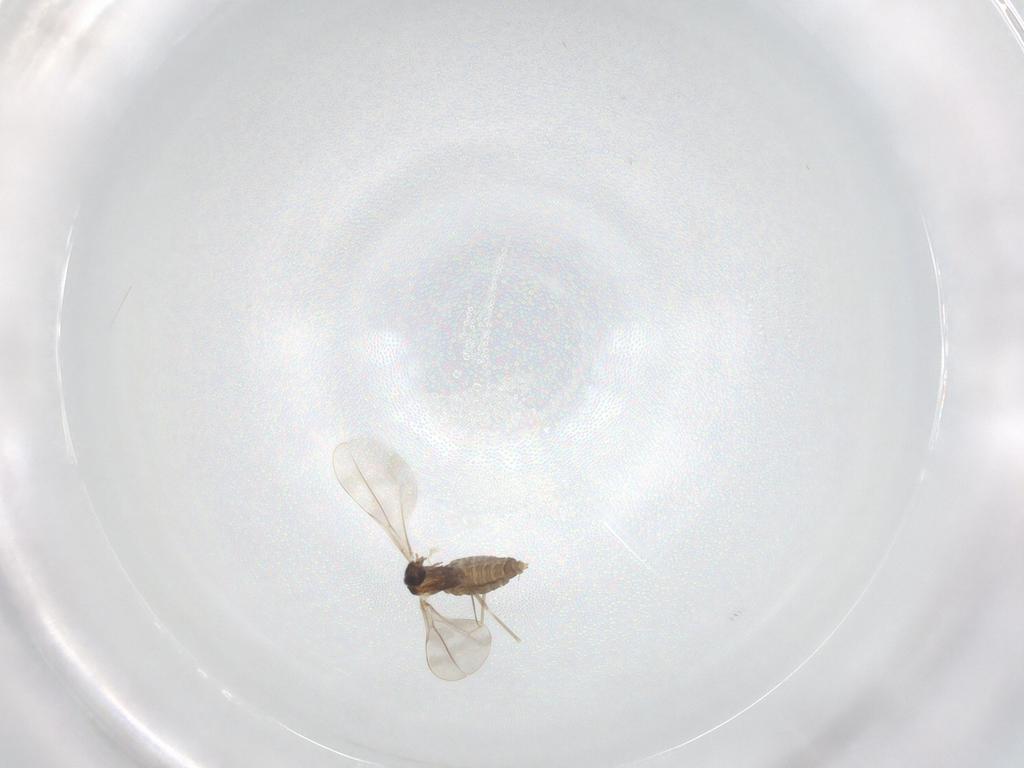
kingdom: Animalia
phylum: Arthropoda
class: Insecta
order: Diptera
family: Cecidomyiidae
